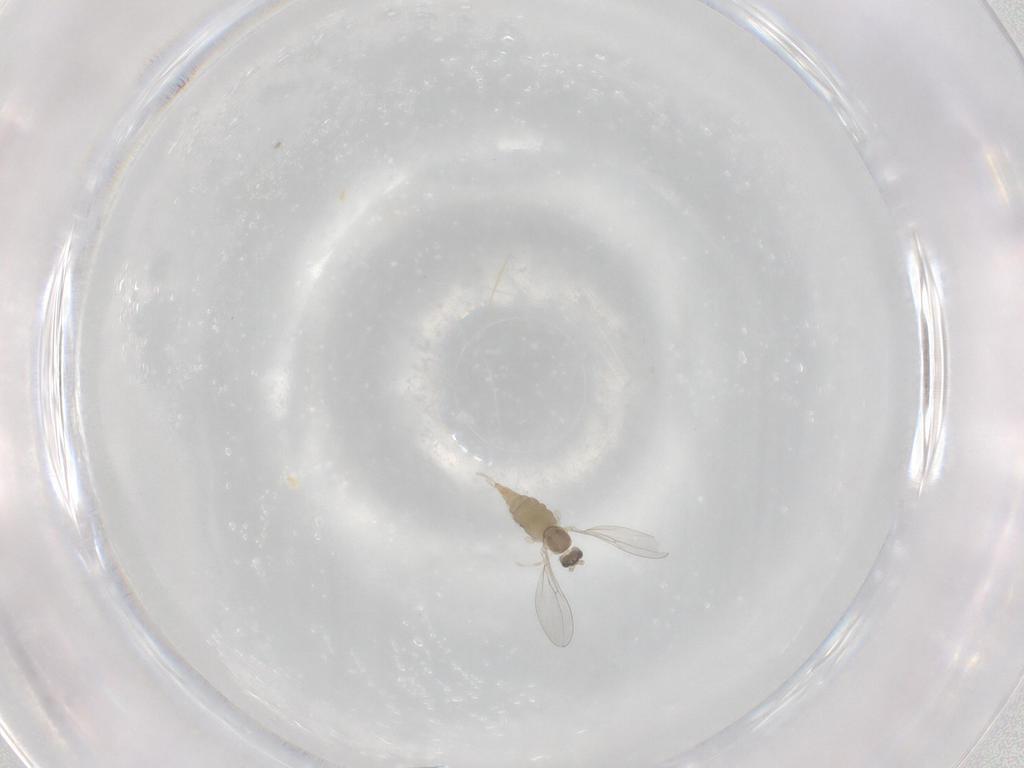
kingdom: Animalia
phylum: Arthropoda
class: Insecta
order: Diptera
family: Cecidomyiidae
